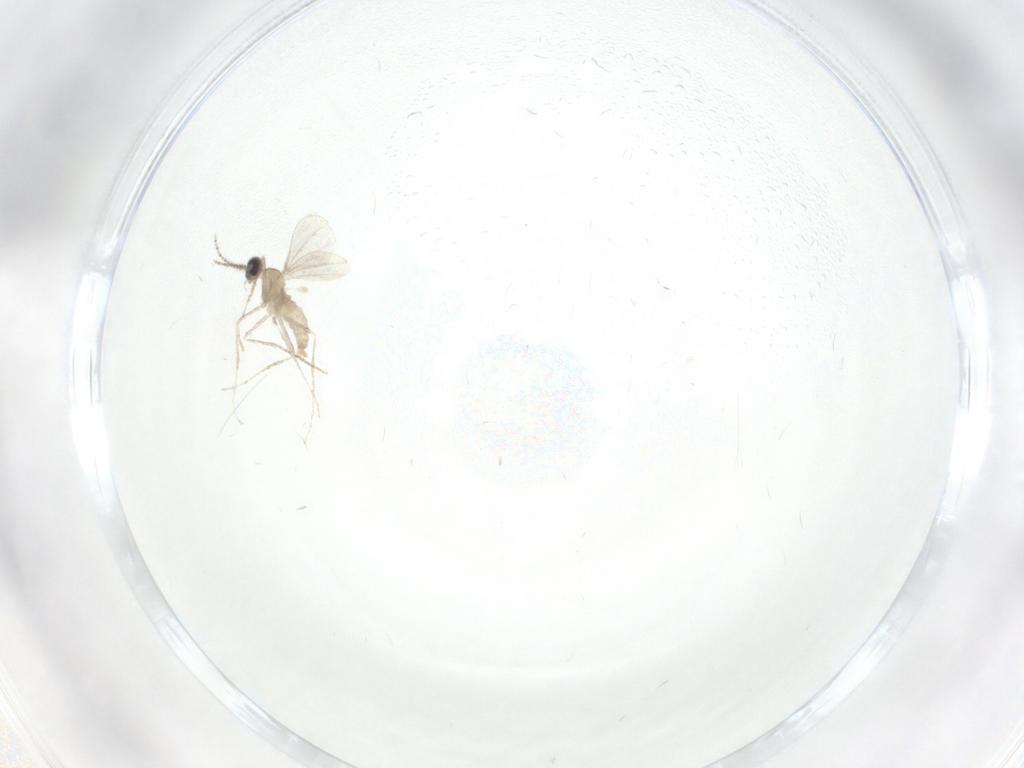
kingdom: Animalia
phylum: Arthropoda
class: Insecta
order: Diptera
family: Cecidomyiidae
